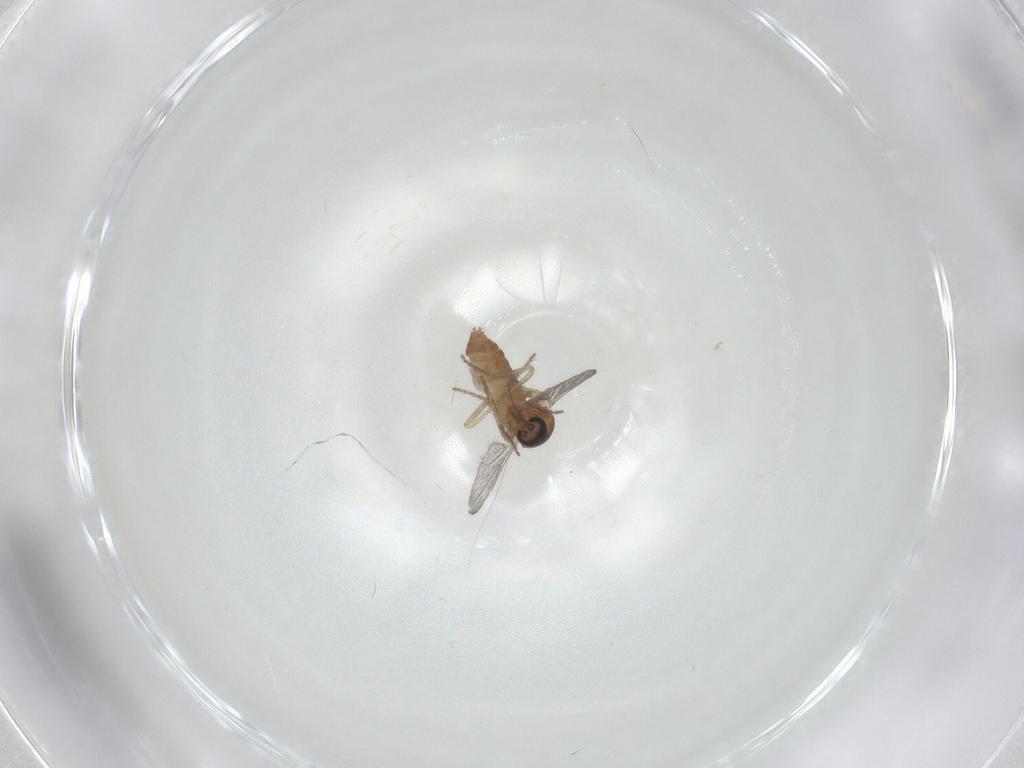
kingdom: Animalia
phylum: Arthropoda
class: Insecta
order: Diptera
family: Ceratopogonidae
